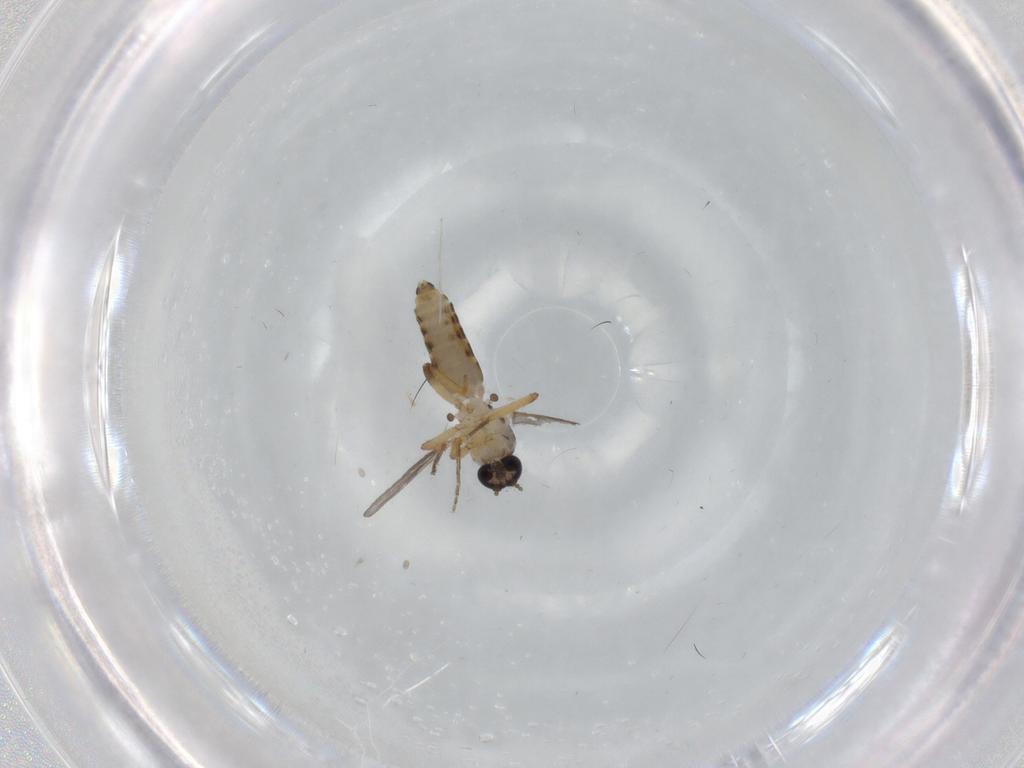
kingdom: Animalia
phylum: Arthropoda
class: Insecta
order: Diptera
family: Ceratopogonidae
